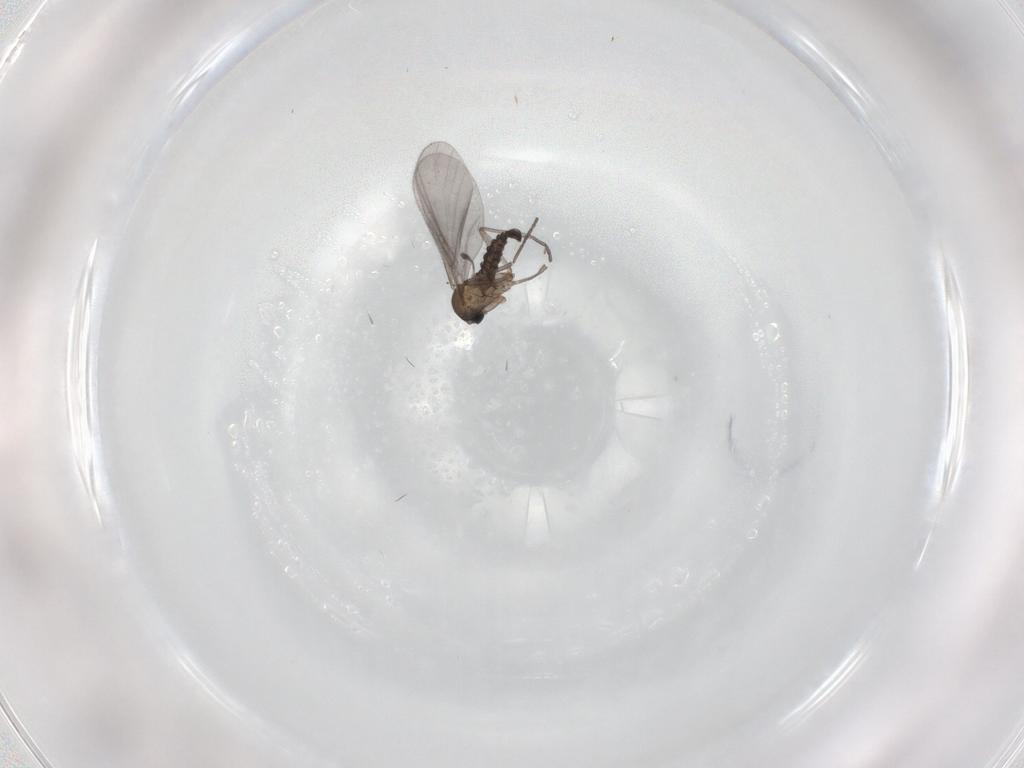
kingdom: Animalia
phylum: Arthropoda
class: Insecta
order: Diptera
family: Sciaridae
